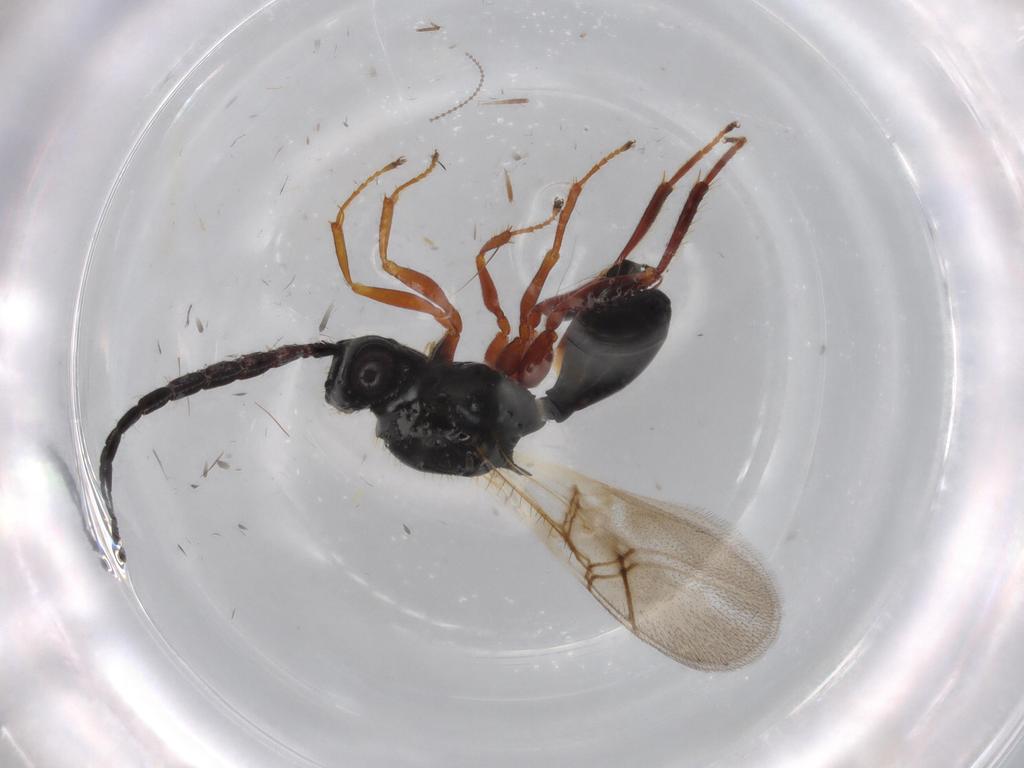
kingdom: Animalia
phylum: Arthropoda
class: Insecta
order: Hymenoptera
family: Figitidae
